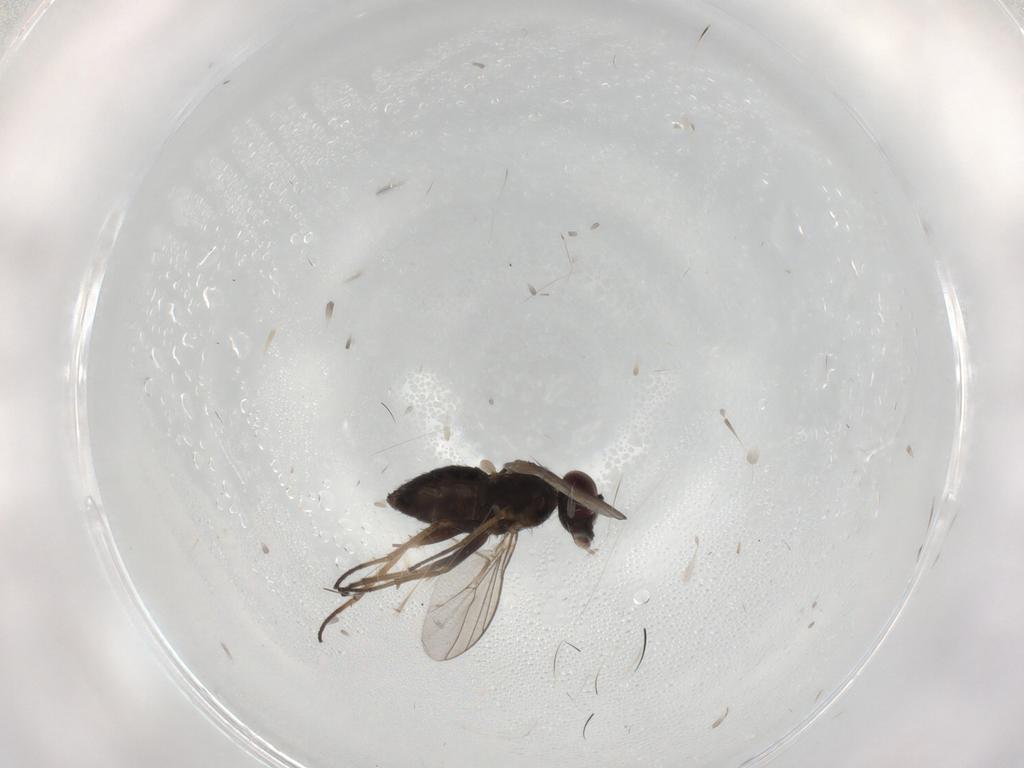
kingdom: Animalia
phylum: Arthropoda
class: Insecta
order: Diptera
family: Dolichopodidae
